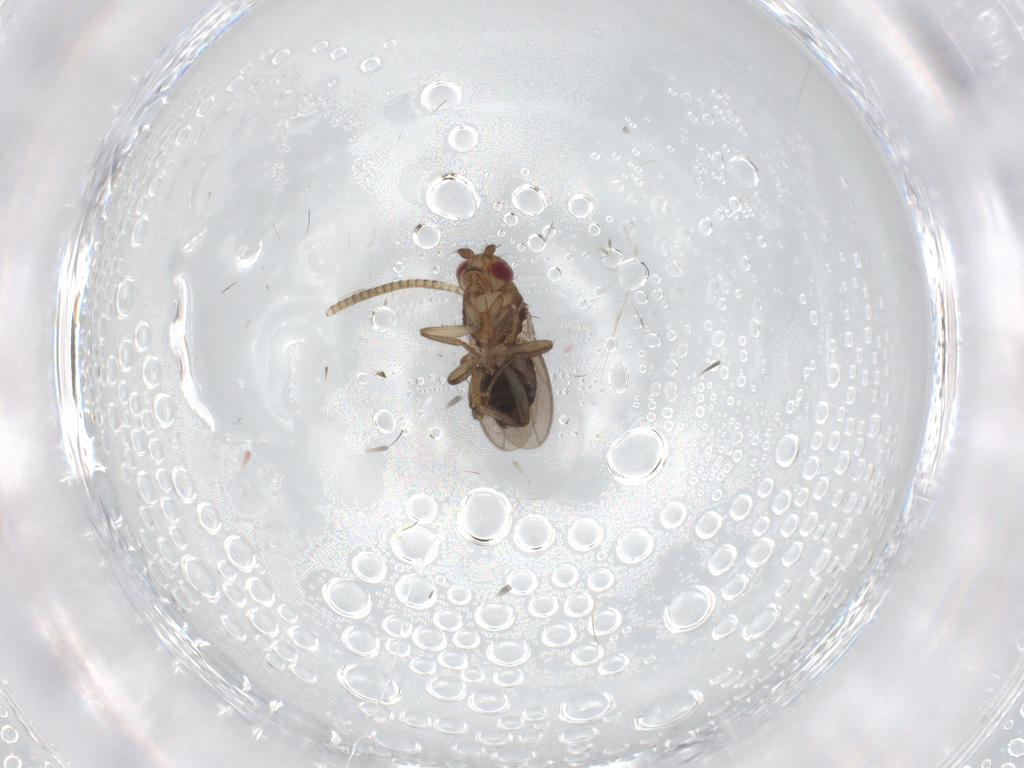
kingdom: Animalia
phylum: Arthropoda
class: Insecta
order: Diptera
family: Sphaeroceridae
